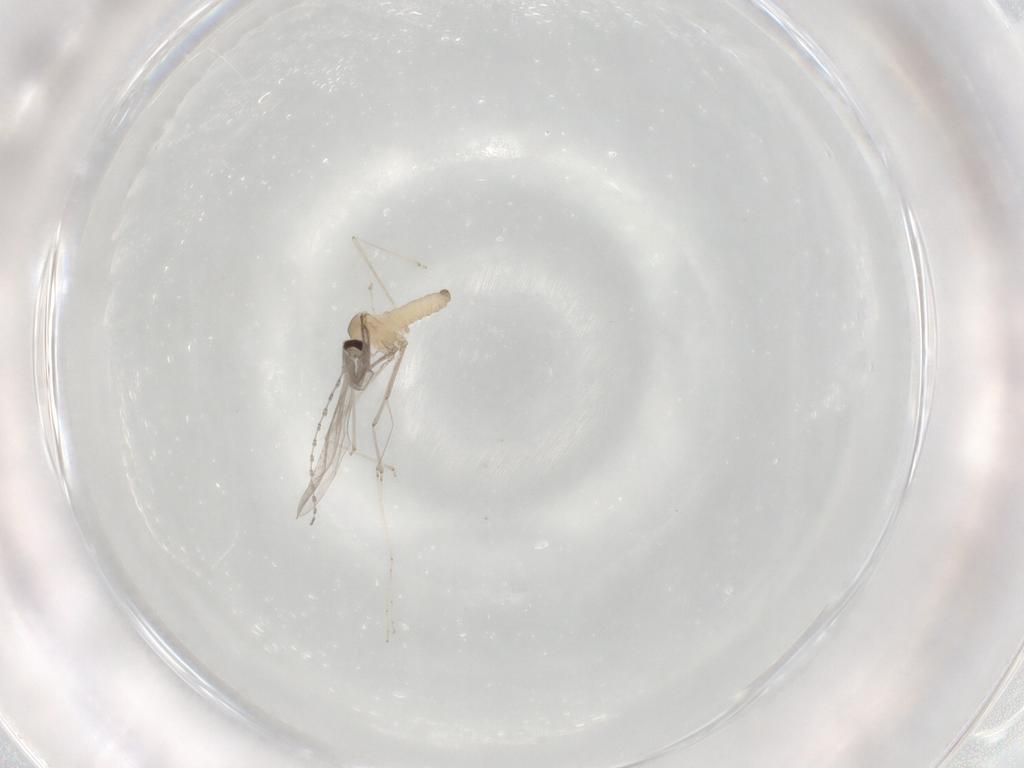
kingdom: Animalia
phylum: Arthropoda
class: Insecta
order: Diptera
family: Cecidomyiidae
